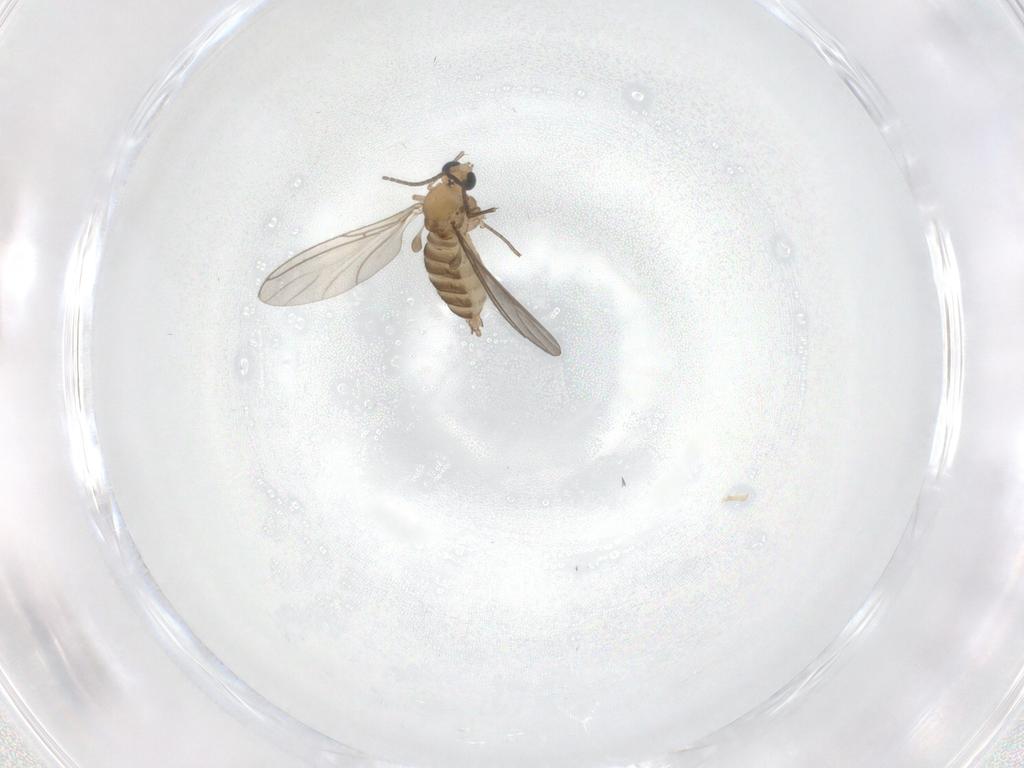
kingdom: Animalia
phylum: Arthropoda
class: Insecta
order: Diptera
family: Sciaridae
